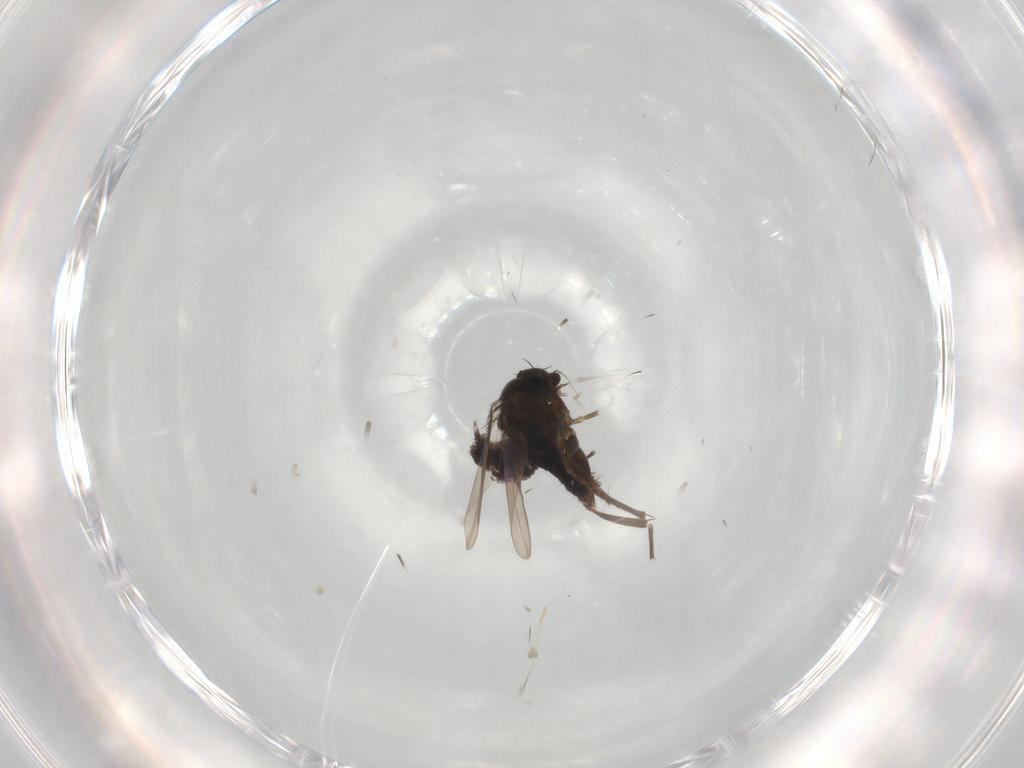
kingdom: Animalia
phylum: Arthropoda
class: Insecta
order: Diptera
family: Phoridae
